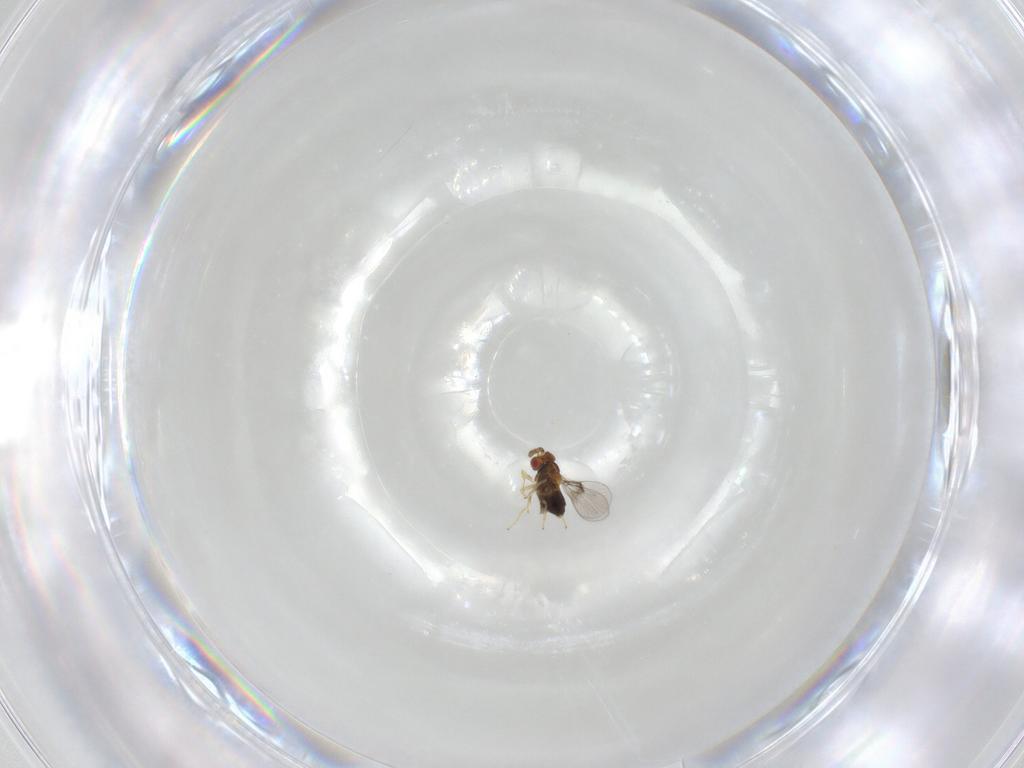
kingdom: Animalia
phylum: Arthropoda
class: Insecta
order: Hymenoptera
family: Trichogrammatidae
